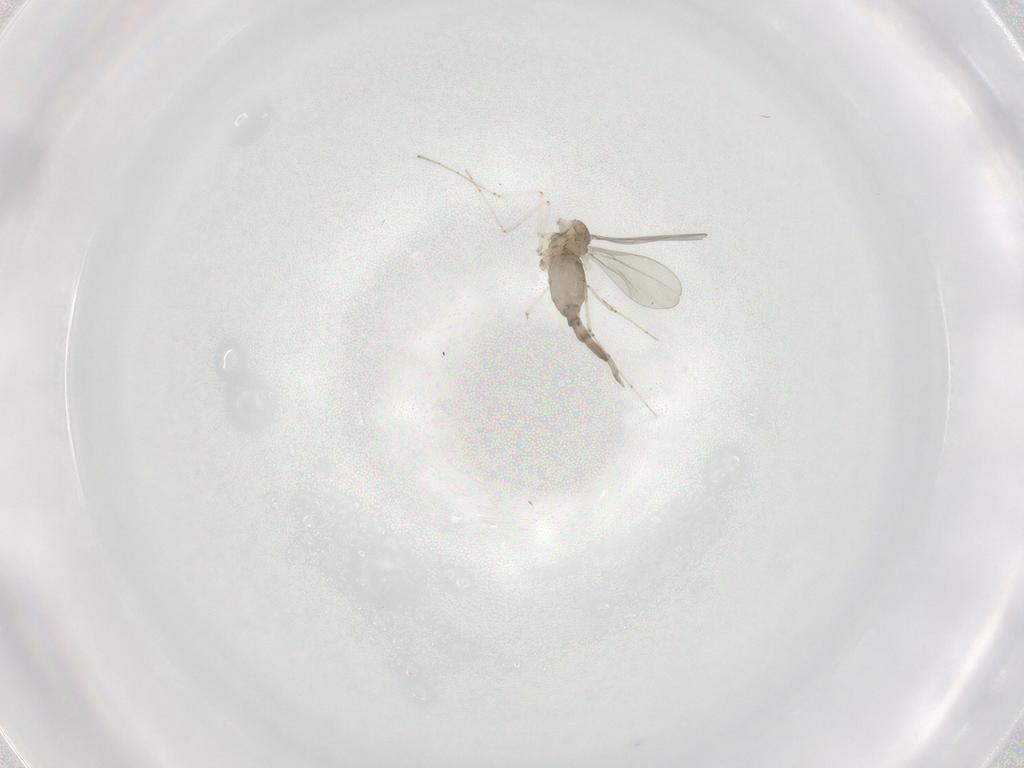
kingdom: Animalia
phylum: Arthropoda
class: Insecta
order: Diptera
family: Cecidomyiidae
